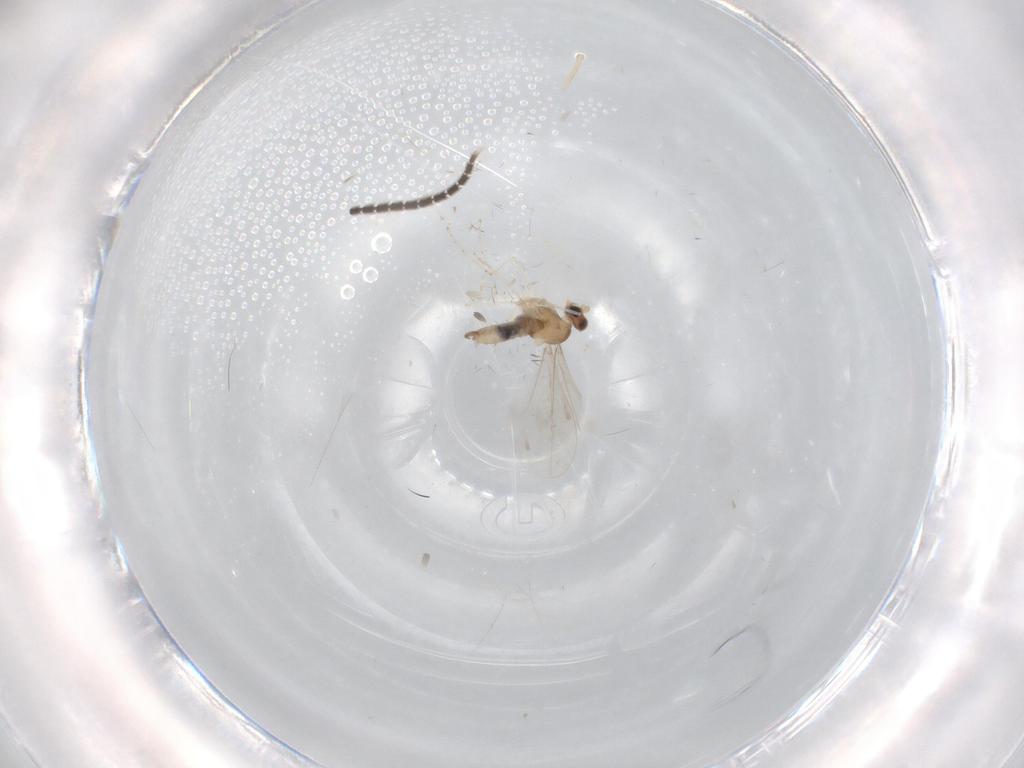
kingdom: Animalia
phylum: Arthropoda
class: Insecta
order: Diptera
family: Cecidomyiidae
